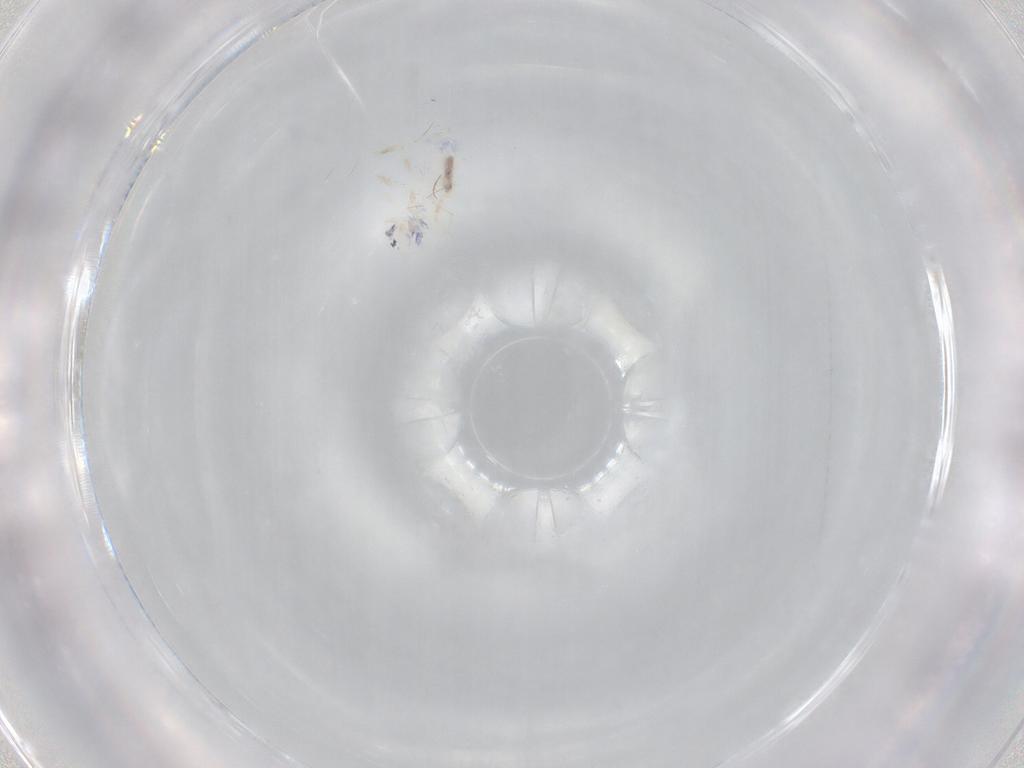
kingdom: Animalia
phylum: Arthropoda
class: Collembola
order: Entomobryomorpha
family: Entomobryidae
